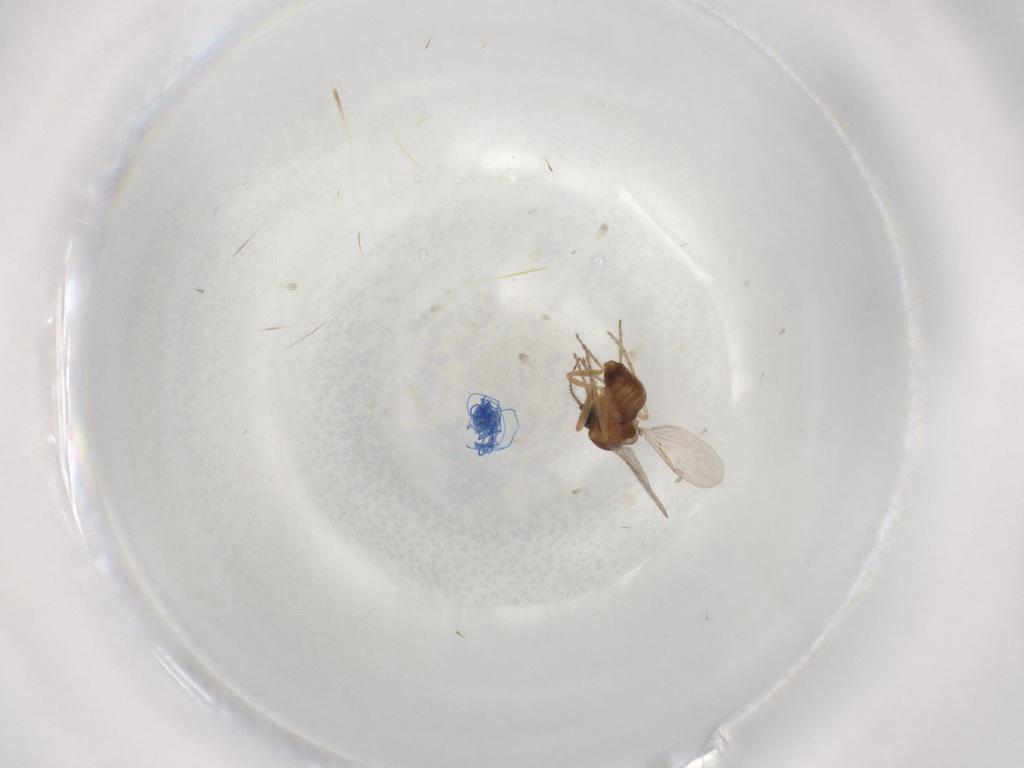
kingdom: Animalia
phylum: Arthropoda
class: Insecta
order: Diptera
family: Ceratopogonidae
